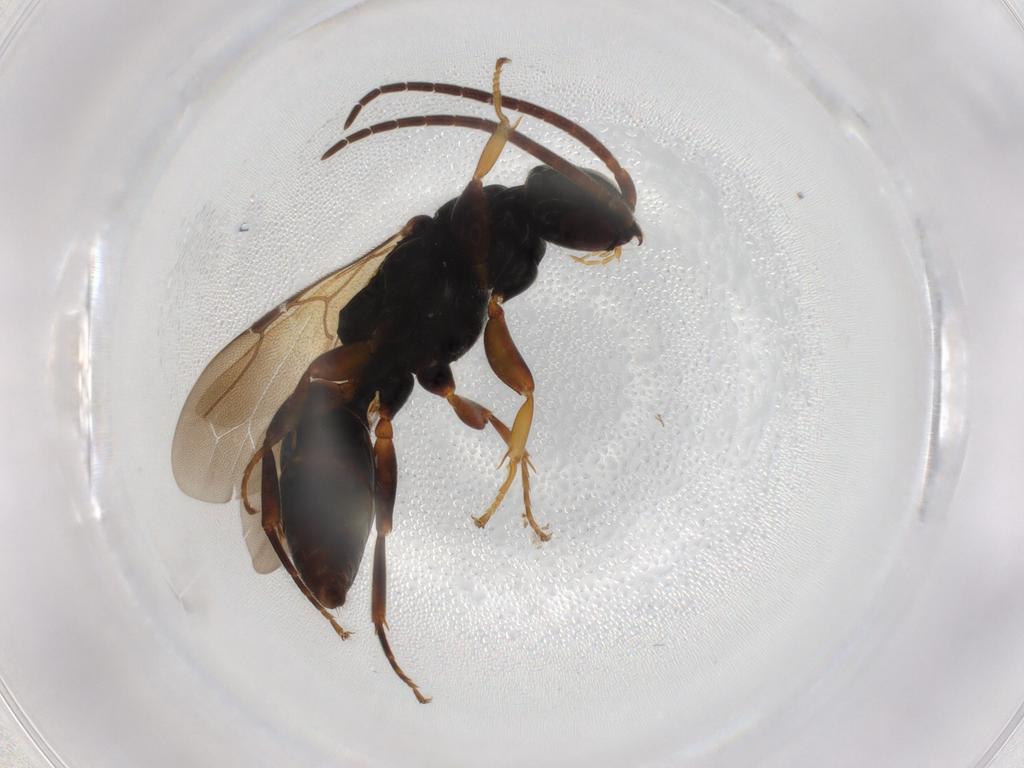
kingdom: Animalia
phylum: Arthropoda
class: Insecta
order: Hymenoptera
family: Bethylidae
